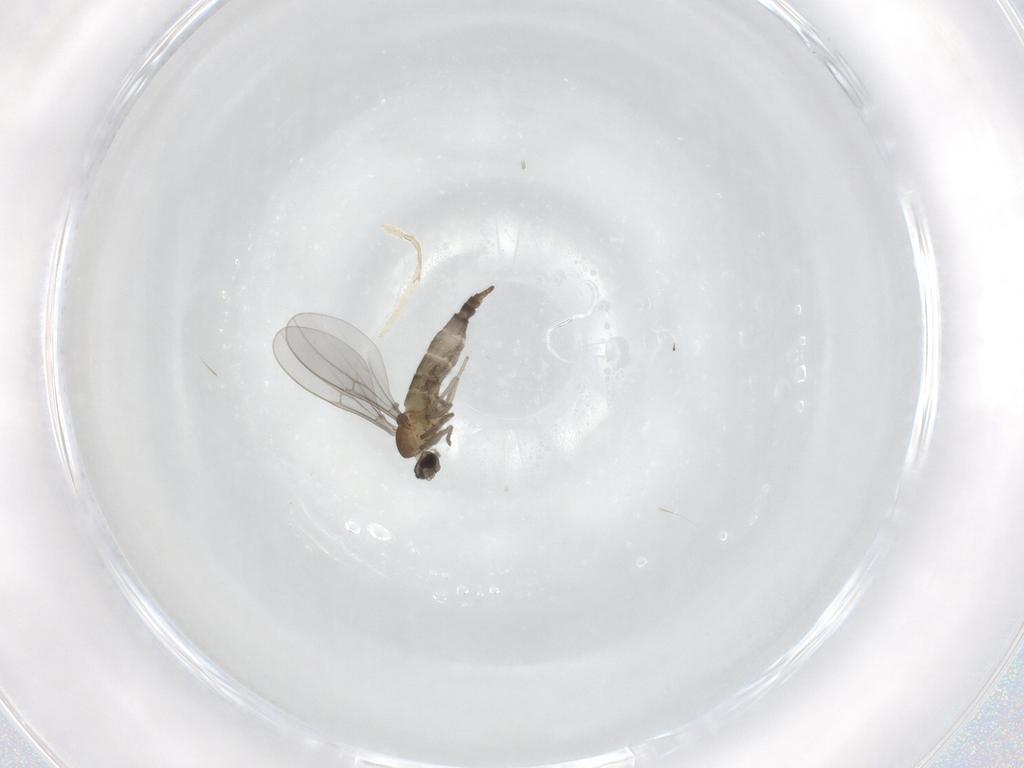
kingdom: Animalia
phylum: Arthropoda
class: Insecta
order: Diptera
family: Cecidomyiidae
